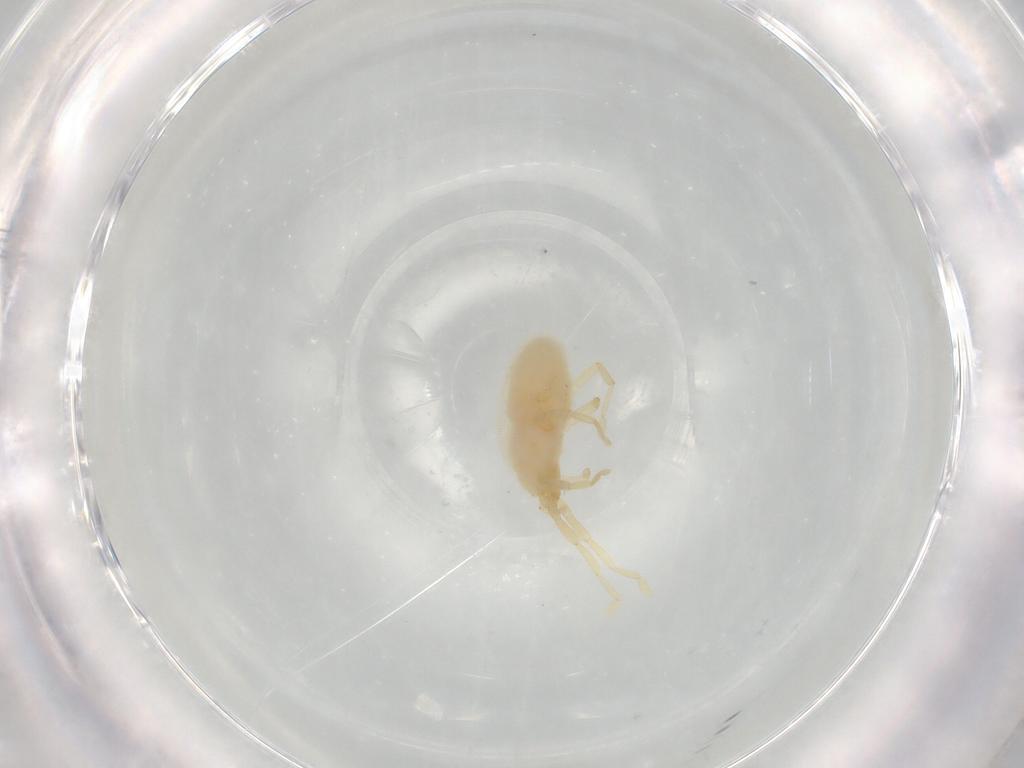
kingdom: Animalia
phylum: Arthropoda
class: Arachnida
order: Trombidiformes
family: Erythraeidae
